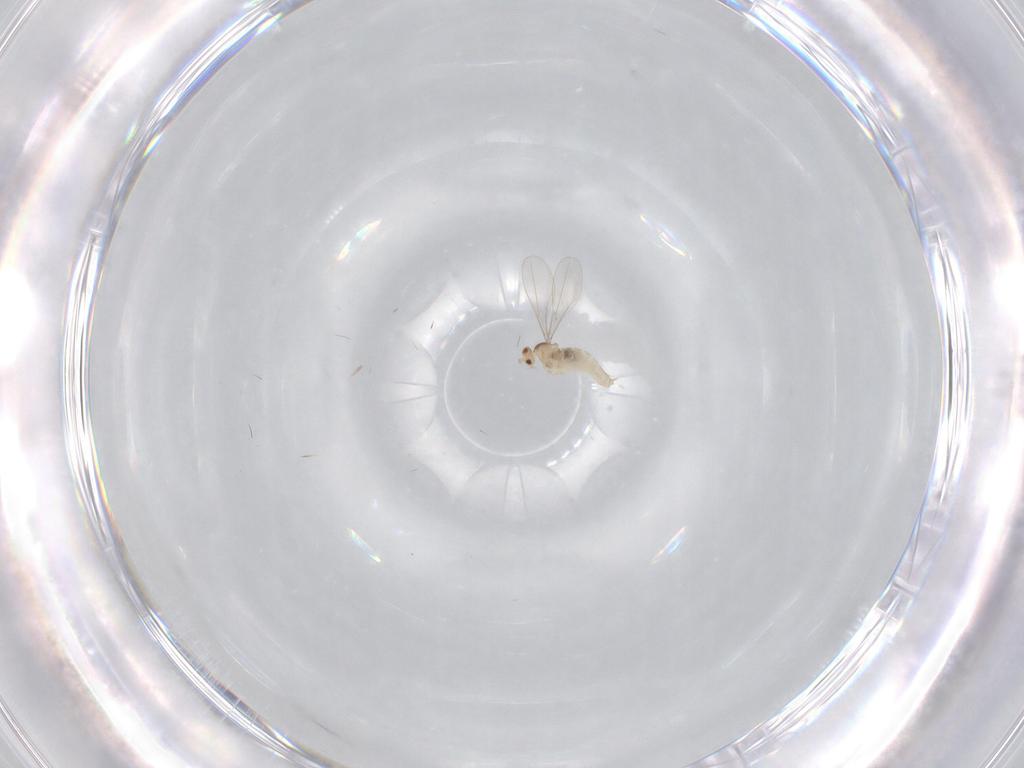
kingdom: Animalia
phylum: Arthropoda
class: Insecta
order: Diptera
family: Cecidomyiidae
